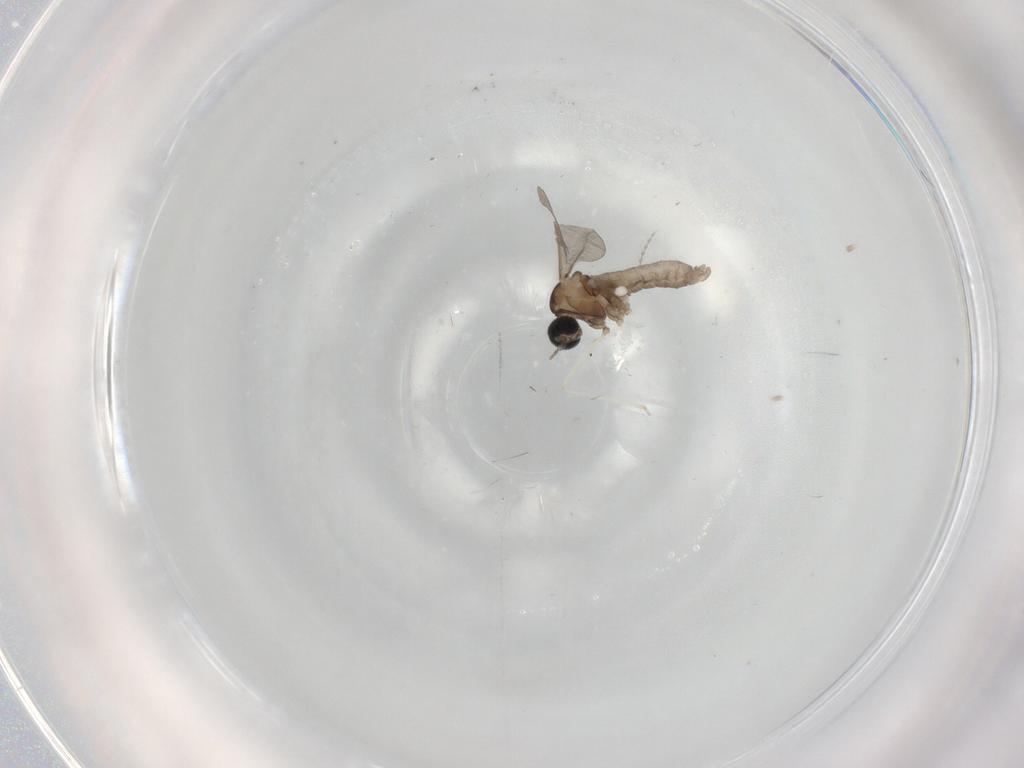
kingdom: Animalia
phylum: Arthropoda
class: Insecta
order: Diptera
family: Cecidomyiidae
